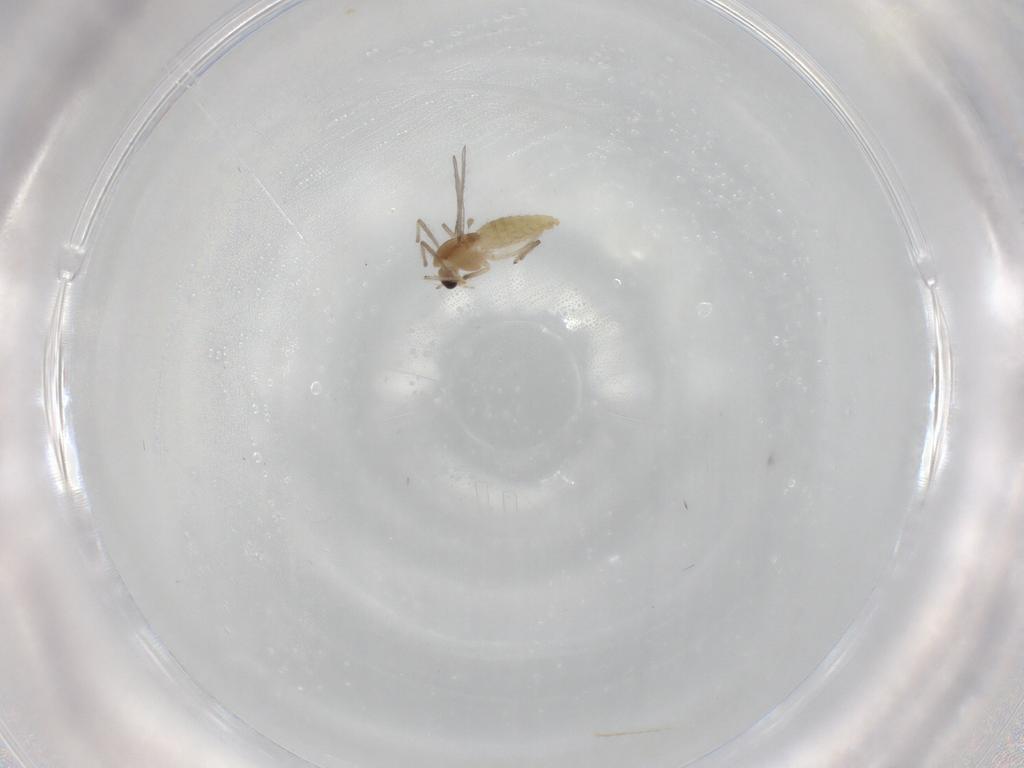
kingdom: Animalia
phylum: Arthropoda
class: Insecta
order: Diptera
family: Chironomidae
